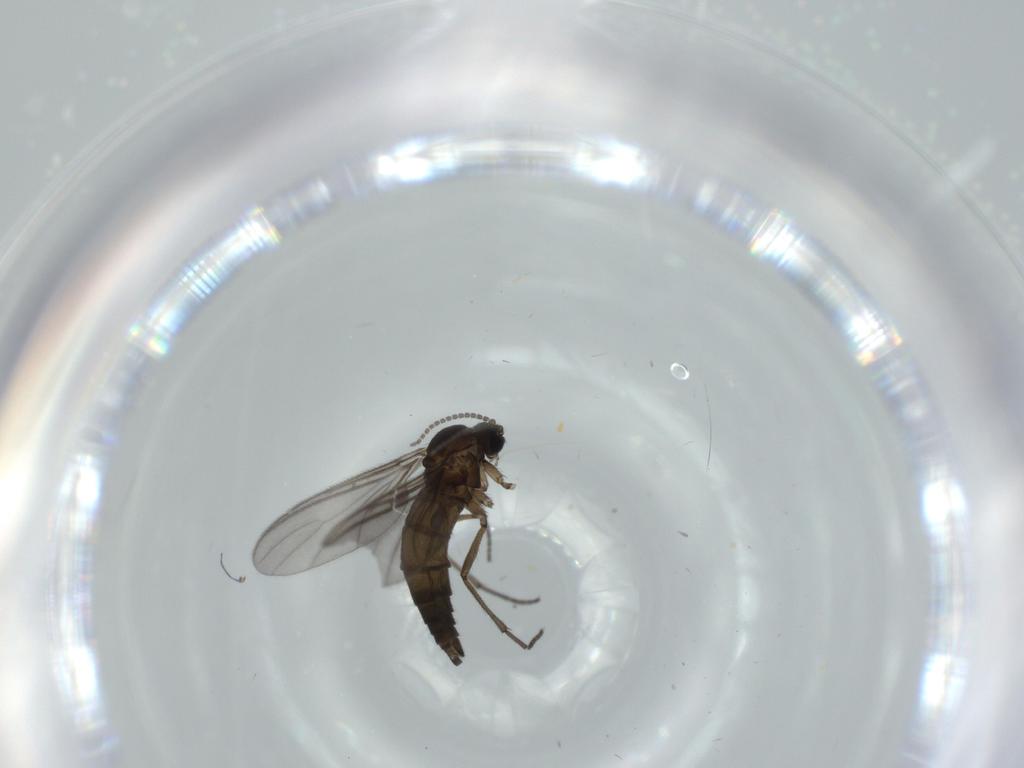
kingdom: Animalia
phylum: Arthropoda
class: Insecta
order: Diptera
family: Sciaridae
